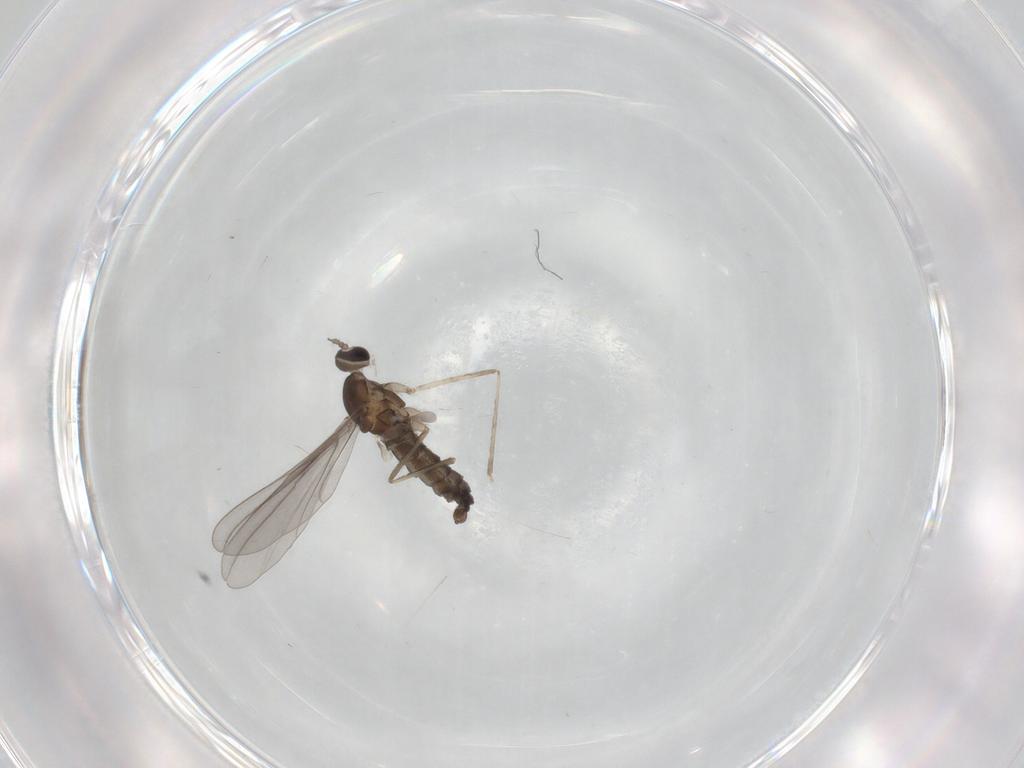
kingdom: Animalia
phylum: Arthropoda
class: Insecta
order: Diptera
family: Cecidomyiidae
